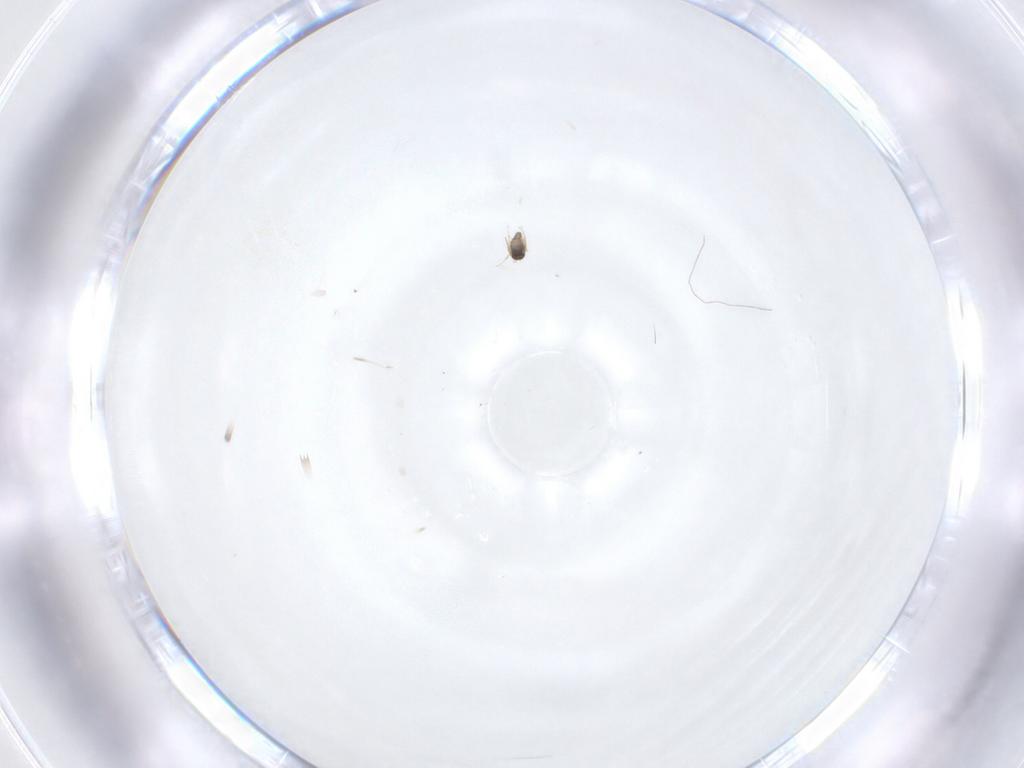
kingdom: Animalia
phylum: Arthropoda
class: Insecta
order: Hymenoptera
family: Mymaridae
